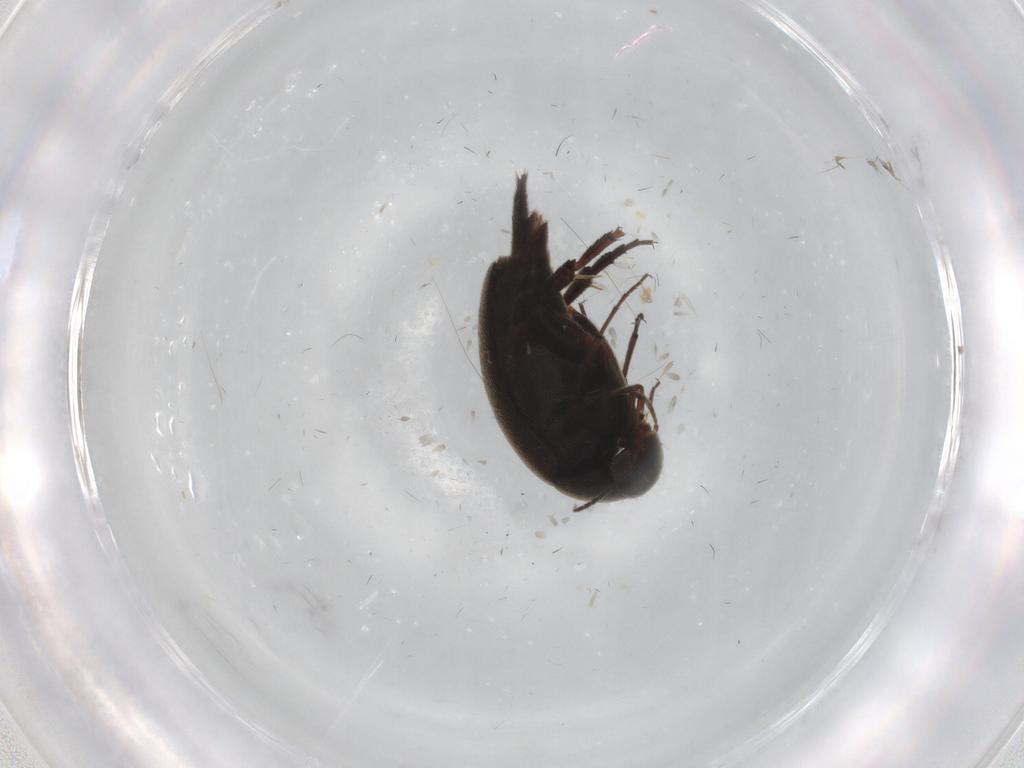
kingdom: Animalia
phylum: Arthropoda
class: Insecta
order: Coleoptera
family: Mordellidae
